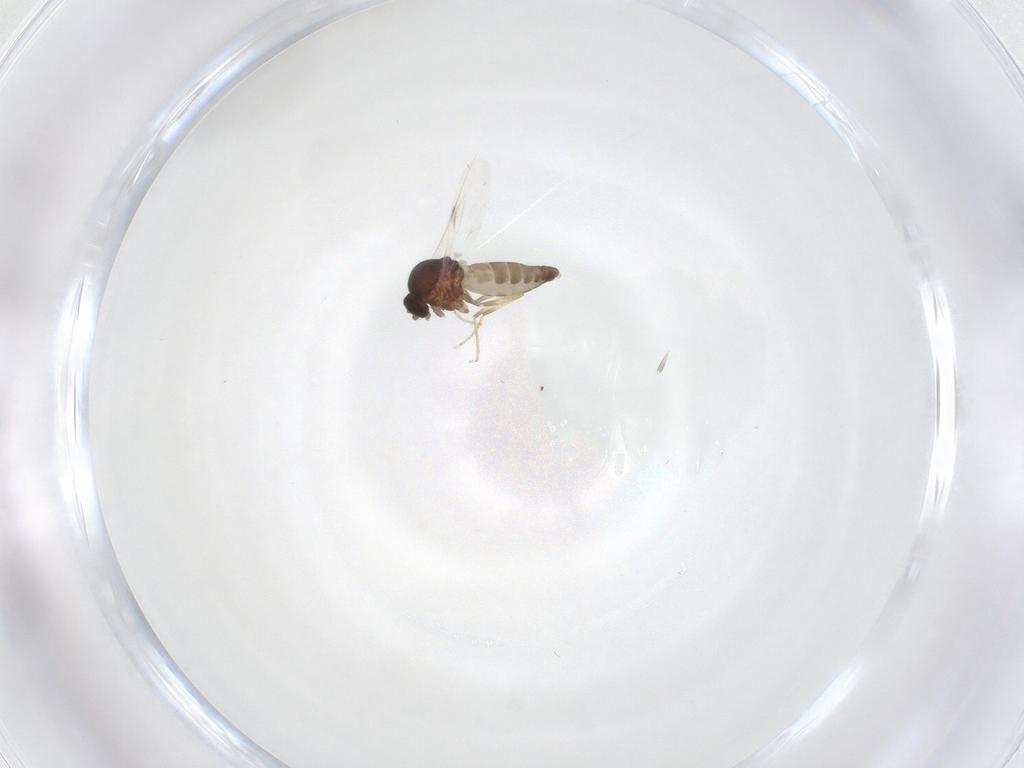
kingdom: Animalia
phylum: Arthropoda
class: Insecta
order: Diptera
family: Ceratopogonidae
